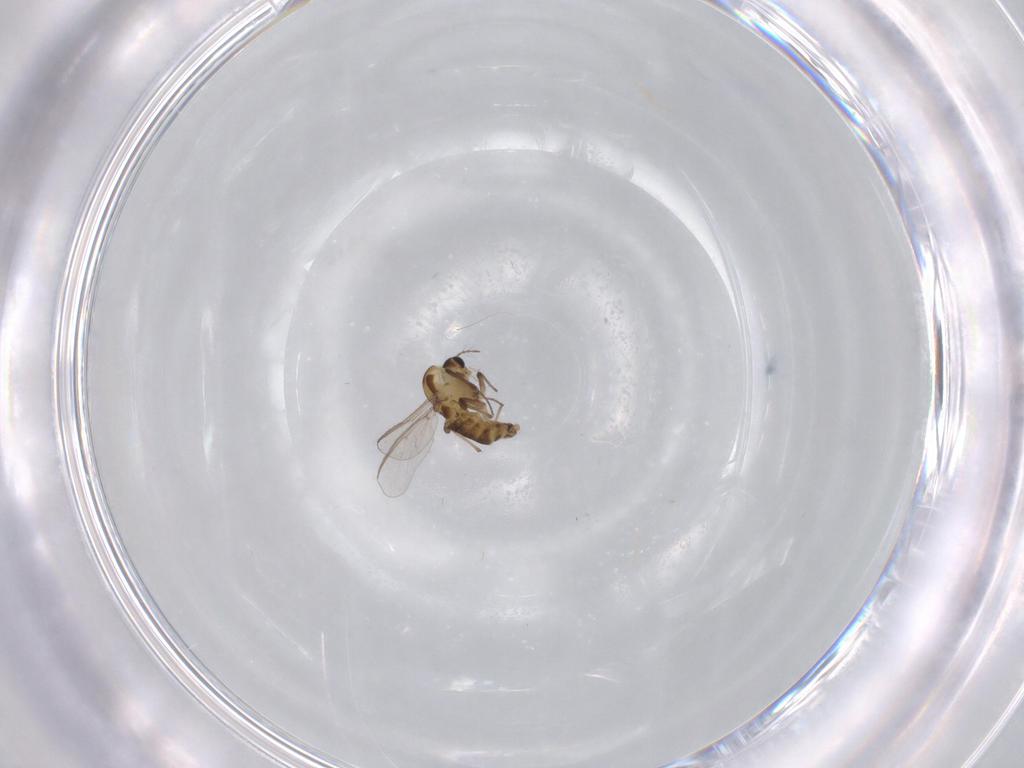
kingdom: Animalia
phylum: Arthropoda
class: Insecta
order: Diptera
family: Chironomidae
